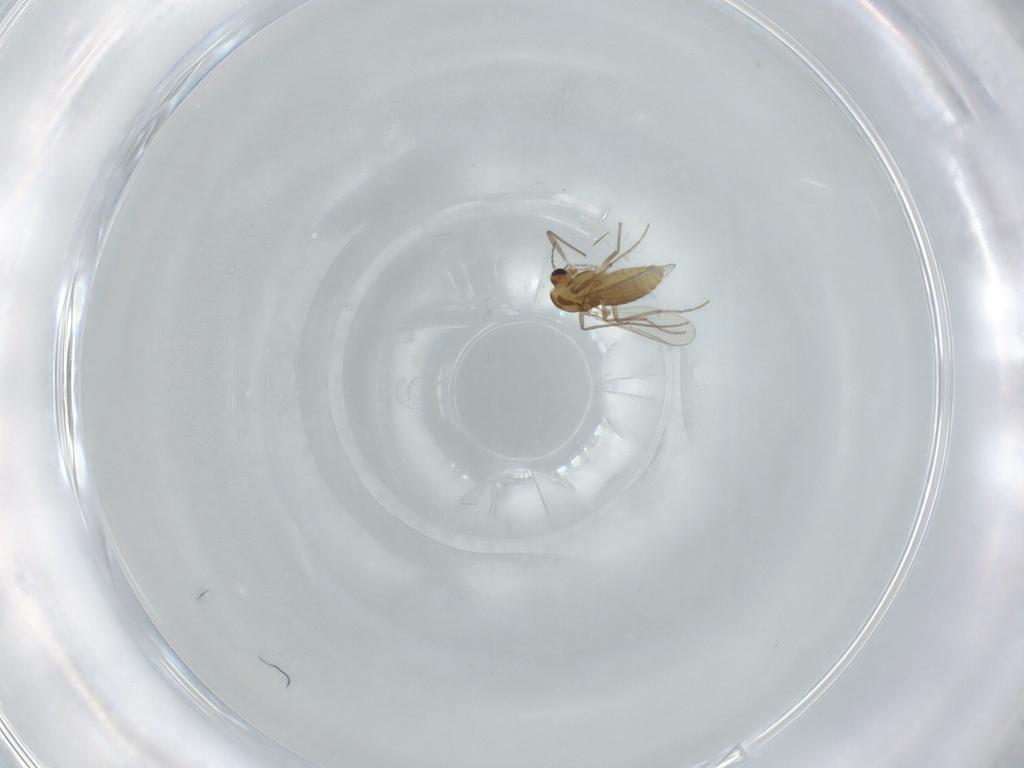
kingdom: Animalia
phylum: Arthropoda
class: Insecta
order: Diptera
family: Chironomidae
